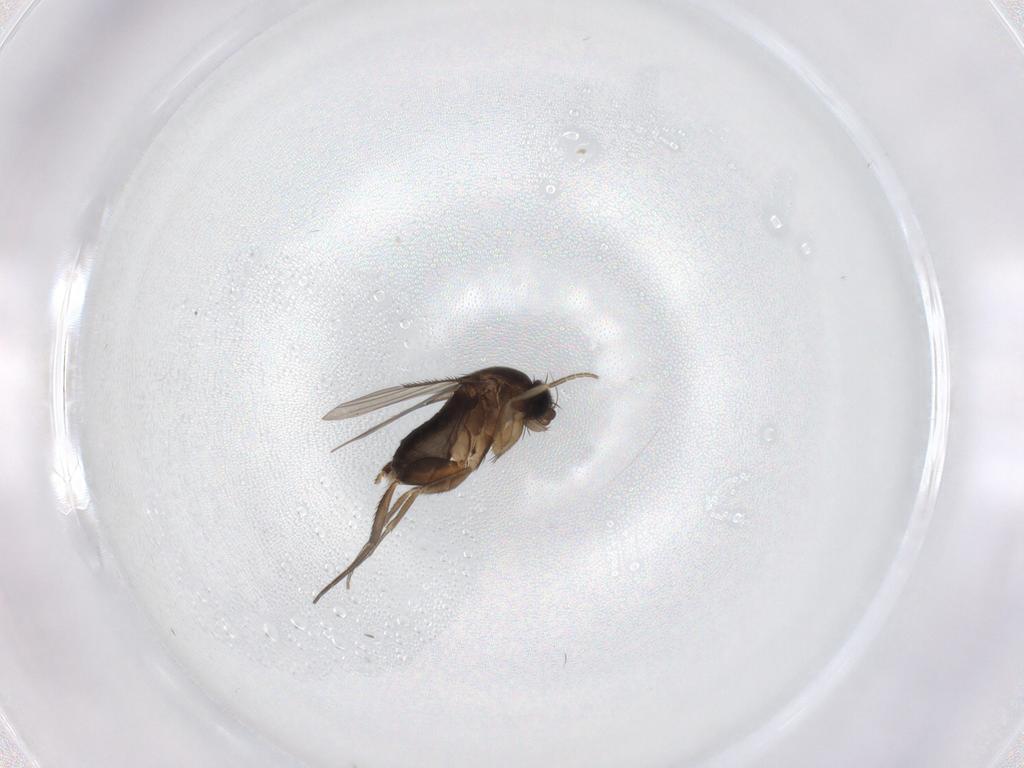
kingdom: Animalia
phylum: Arthropoda
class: Insecta
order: Diptera
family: Phoridae
